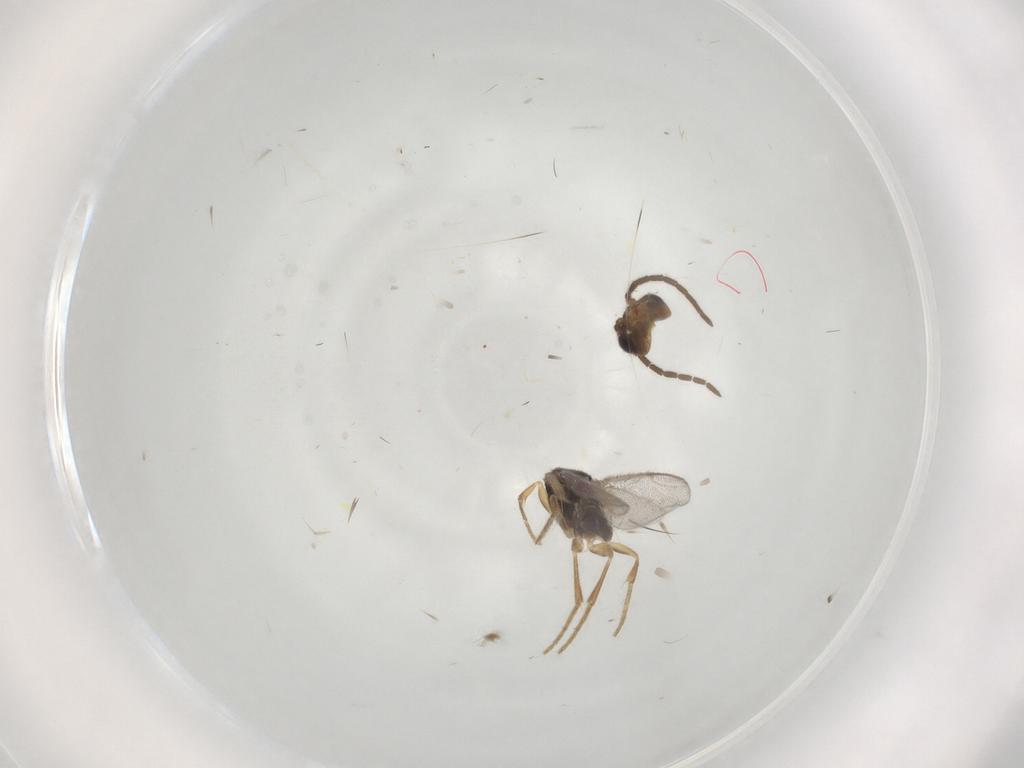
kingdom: Animalia
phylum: Arthropoda
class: Insecta
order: Hymenoptera
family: Dryinidae
